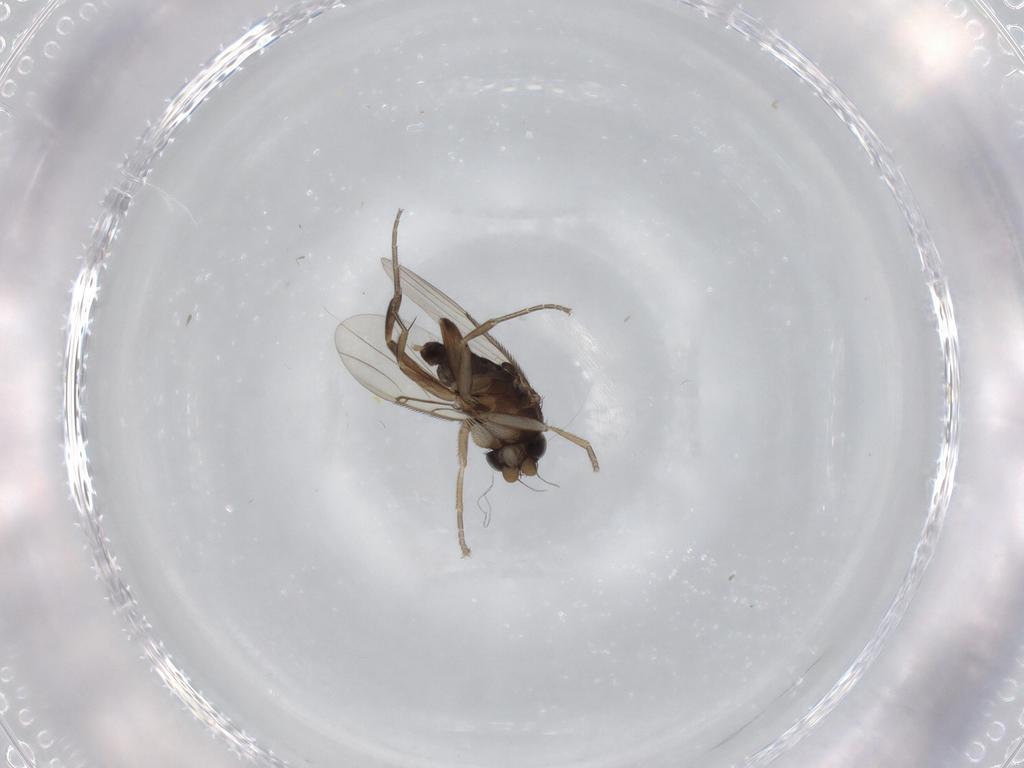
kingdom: Animalia
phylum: Arthropoda
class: Insecta
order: Diptera
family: Phoridae
